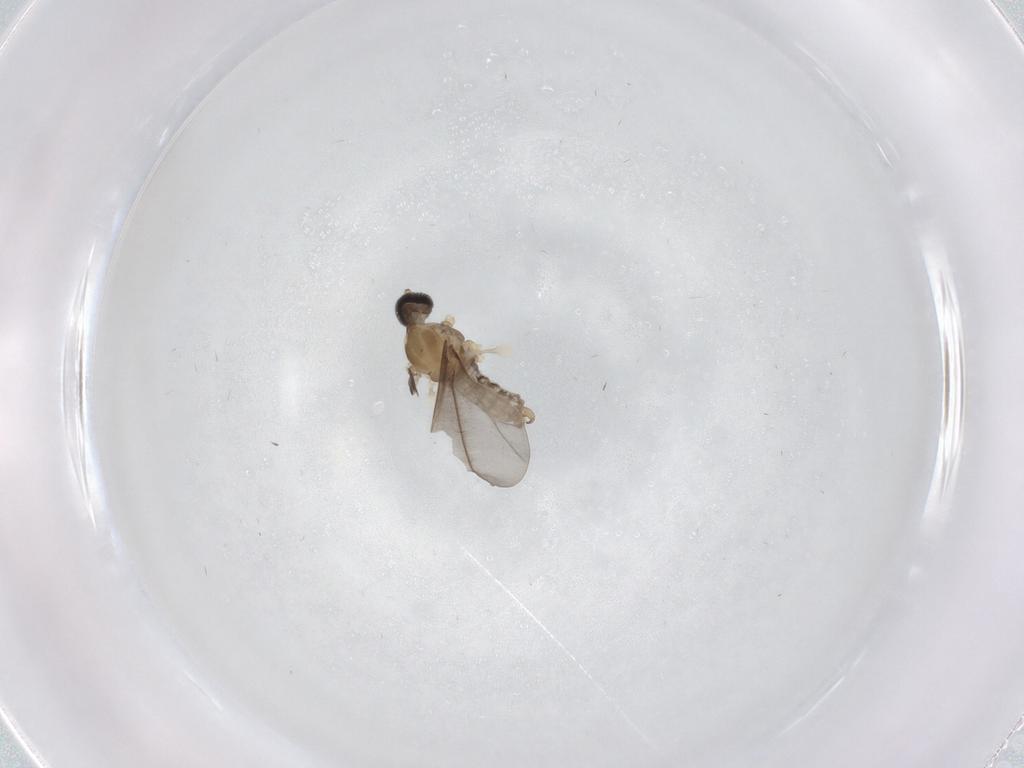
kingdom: Animalia
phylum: Arthropoda
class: Insecta
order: Diptera
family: Cecidomyiidae
